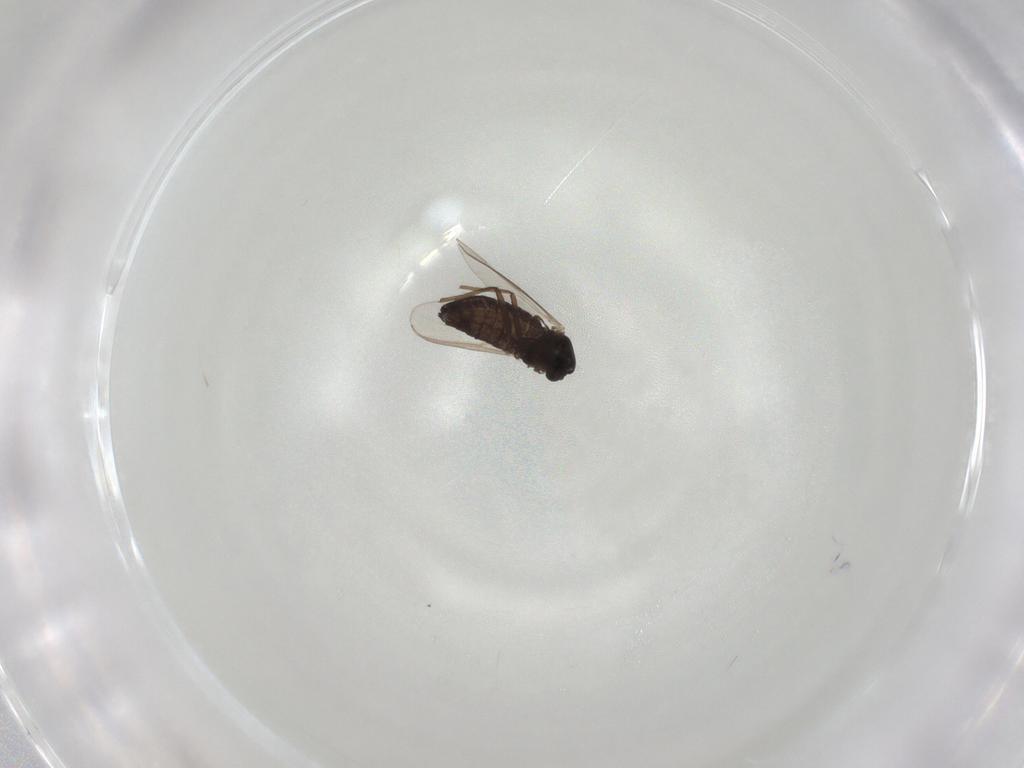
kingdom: Animalia
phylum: Arthropoda
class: Insecta
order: Diptera
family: Chironomidae
